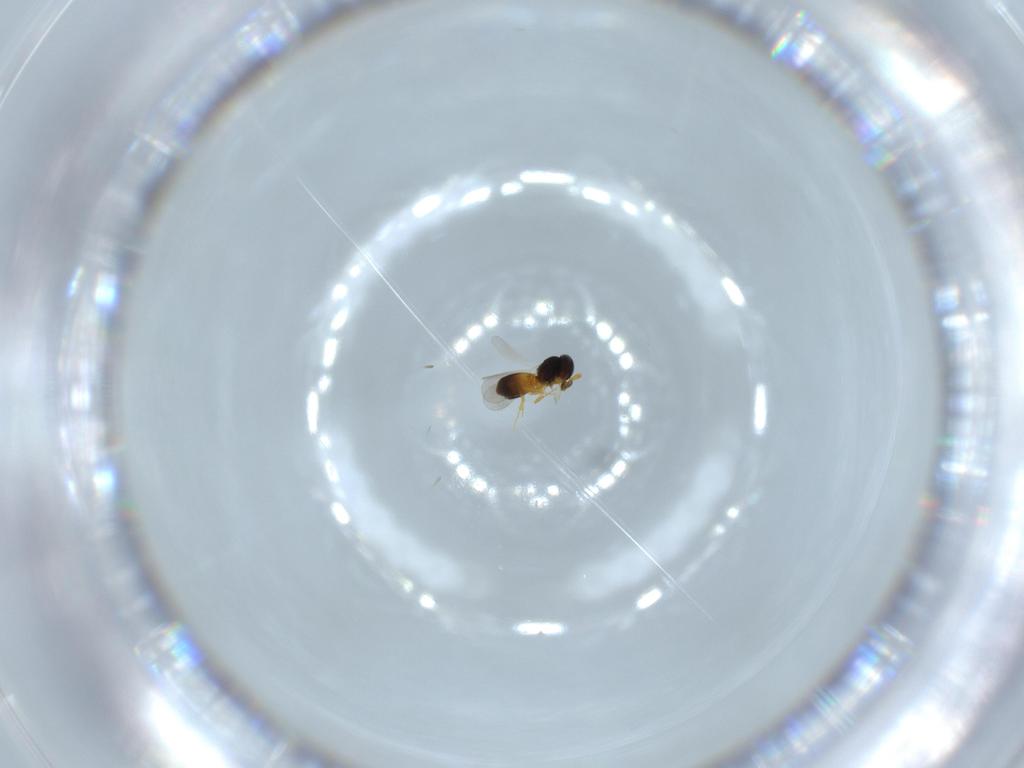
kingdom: Animalia
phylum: Arthropoda
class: Insecta
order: Hymenoptera
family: Platygastridae
